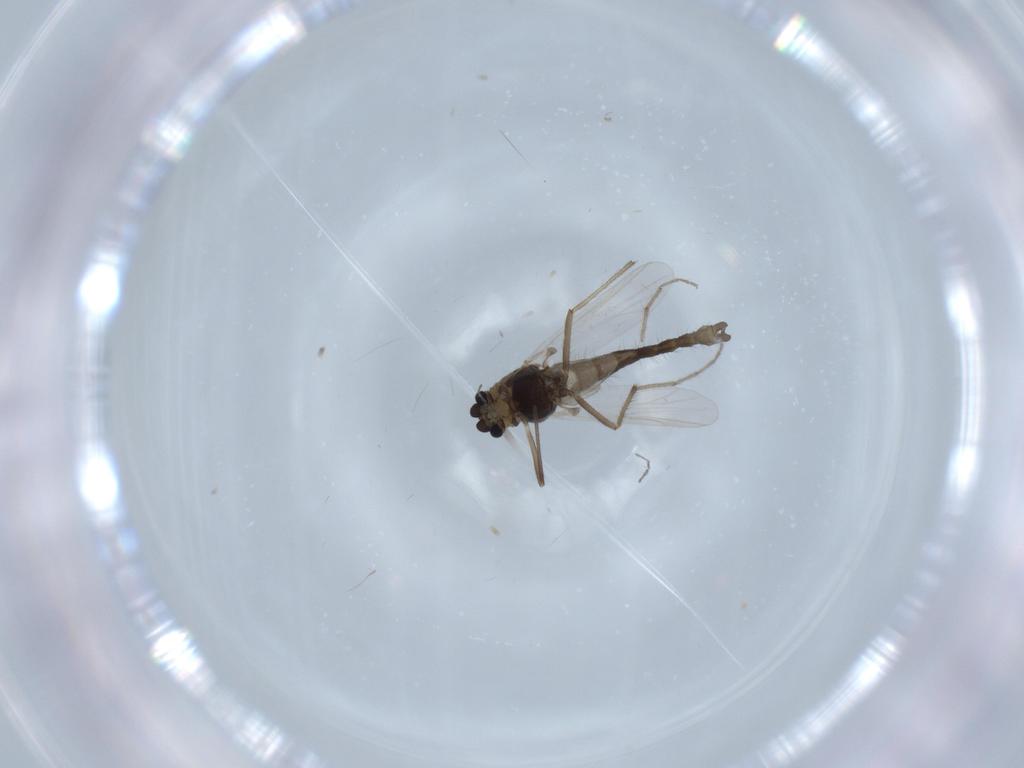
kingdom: Animalia
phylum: Arthropoda
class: Insecta
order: Diptera
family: Chironomidae
